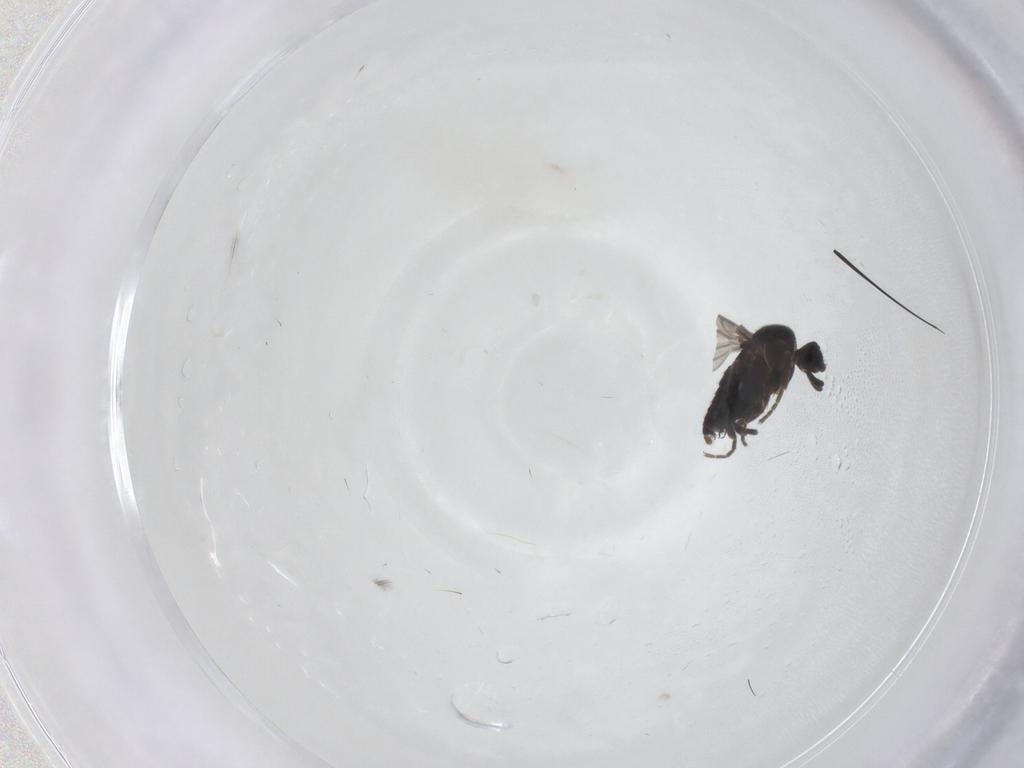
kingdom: Animalia
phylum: Arthropoda
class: Insecta
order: Diptera
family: Tachinidae
